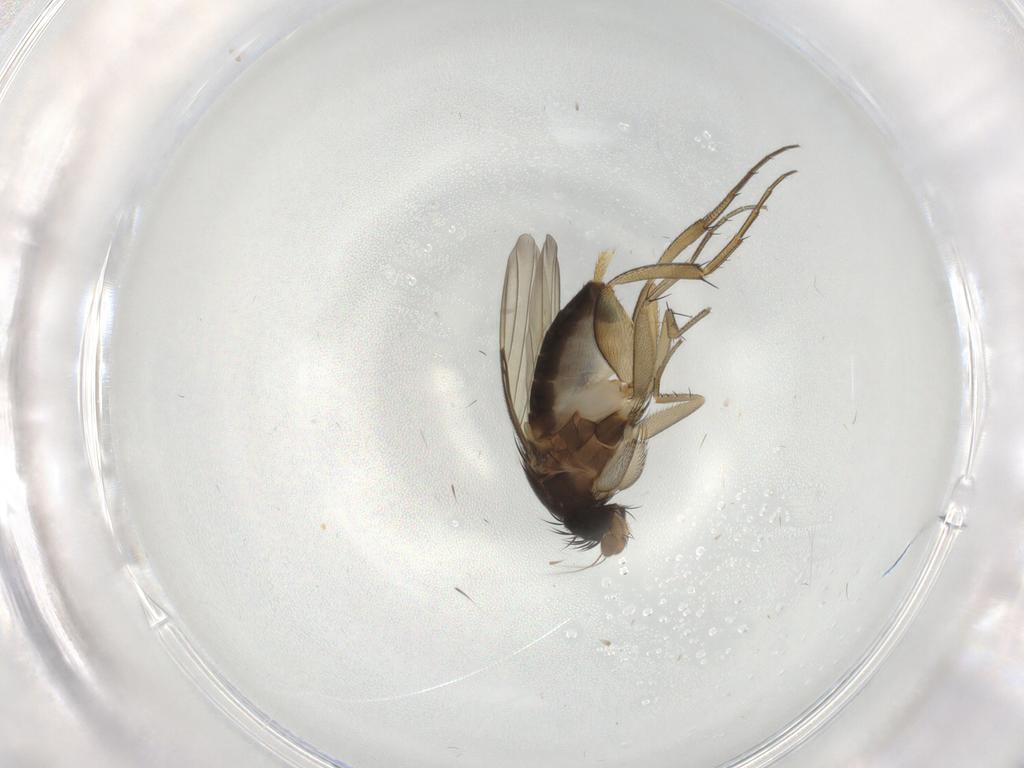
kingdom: Animalia
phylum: Arthropoda
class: Insecta
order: Diptera
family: Phoridae
